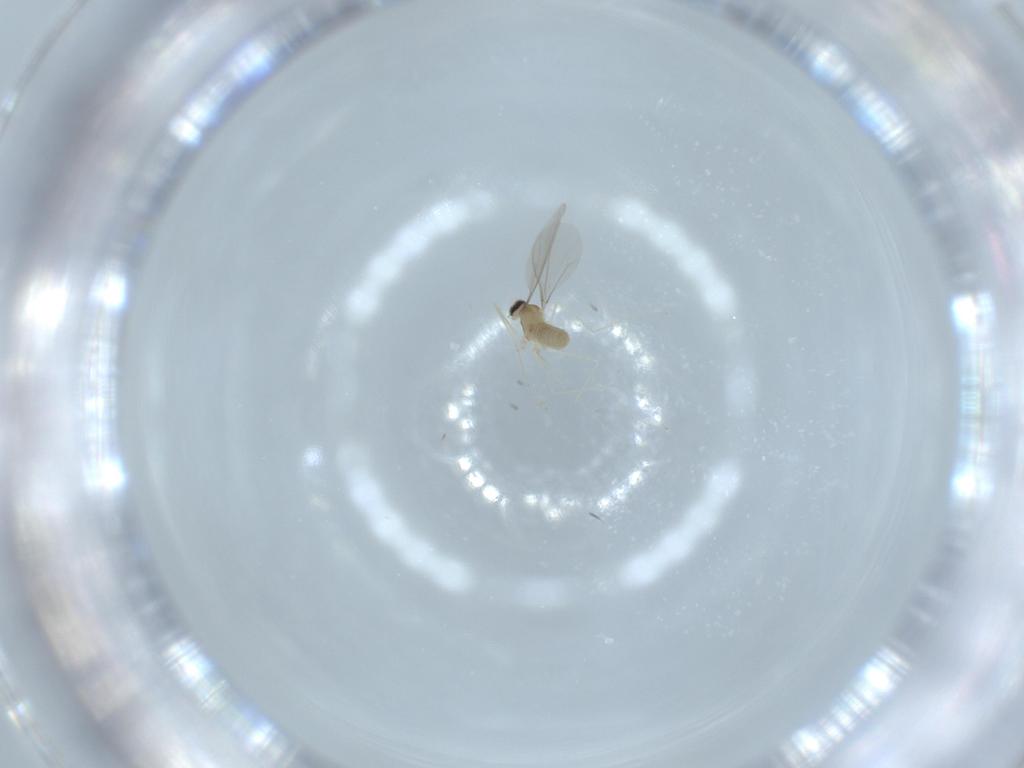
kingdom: Animalia
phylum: Arthropoda
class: Insecta
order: Diptera
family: Cecidomyiidae
